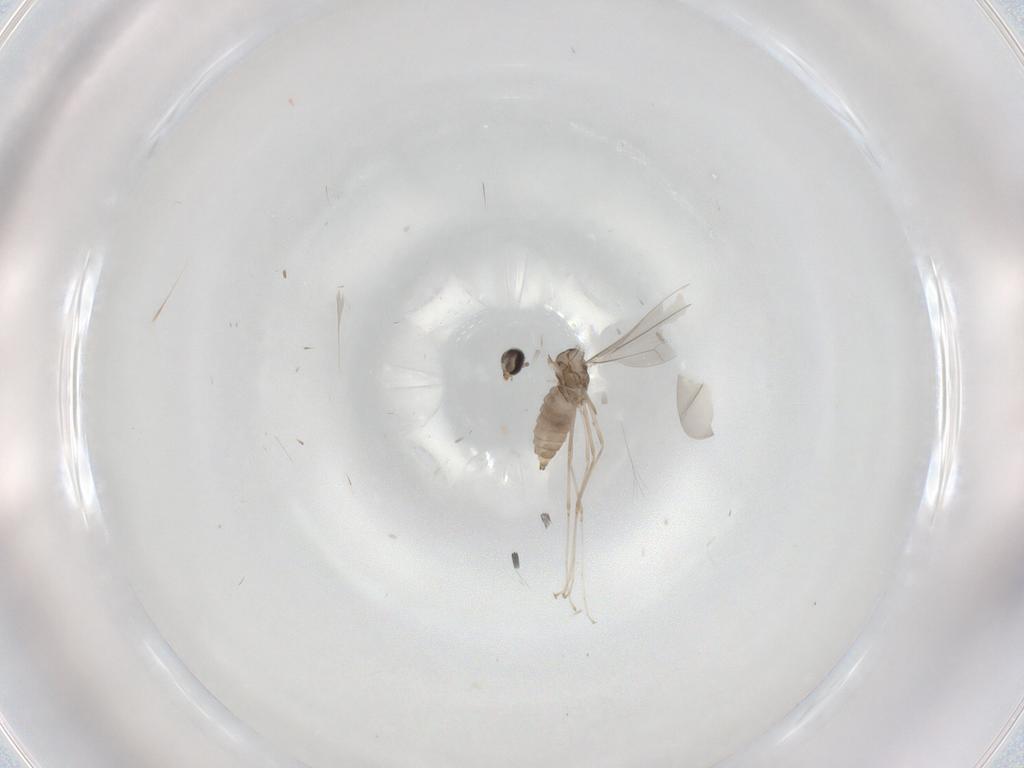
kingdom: Animalia
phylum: Arthropoda
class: Insecta
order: Diptera
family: Sciaridae
